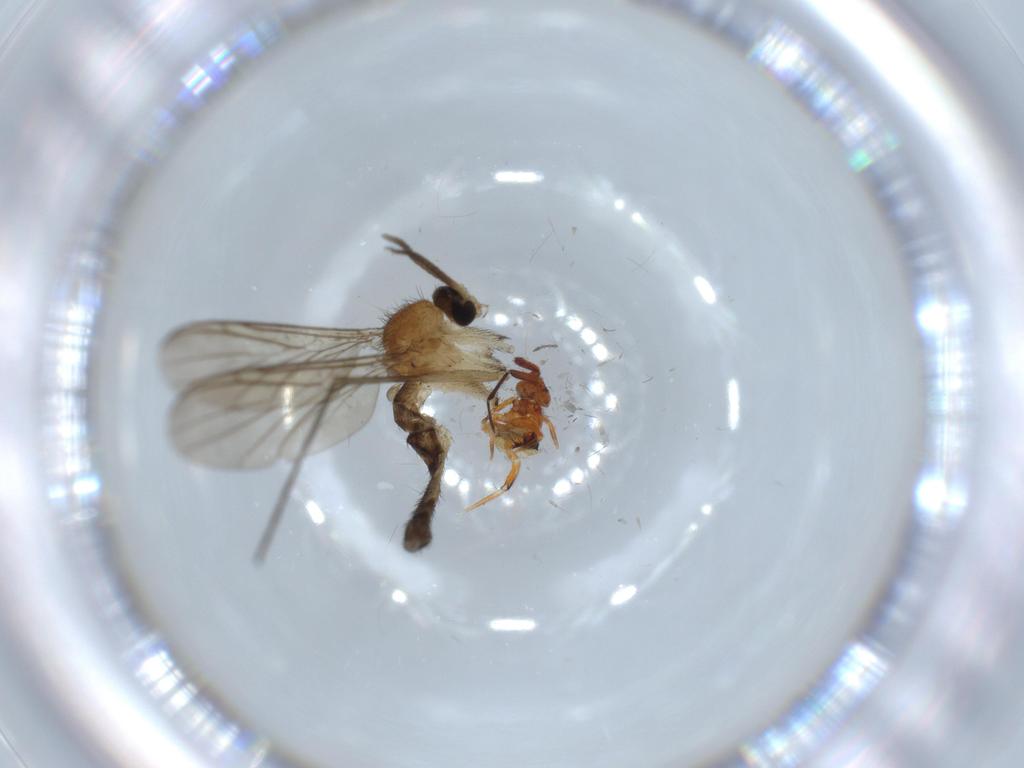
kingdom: Animalia
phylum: Arthropoda
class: Insecta
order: Diptera
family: Keroplatidae
